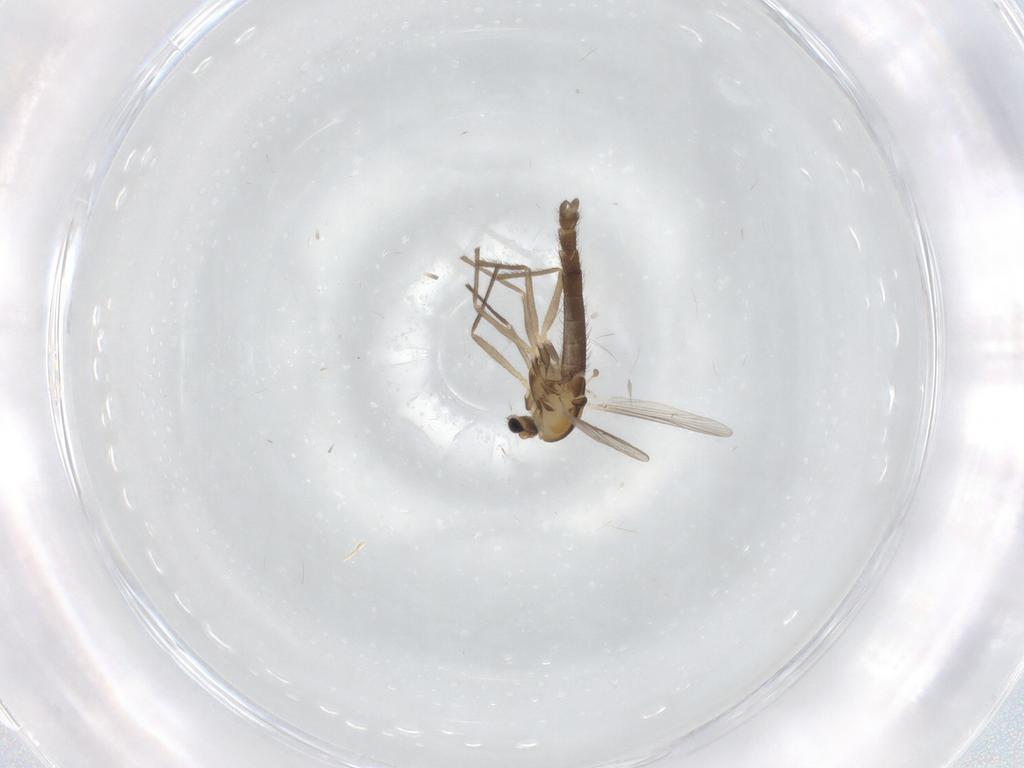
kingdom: Animalia
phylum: Arthropoda
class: Insecta
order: Diptera
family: Chironomidae
